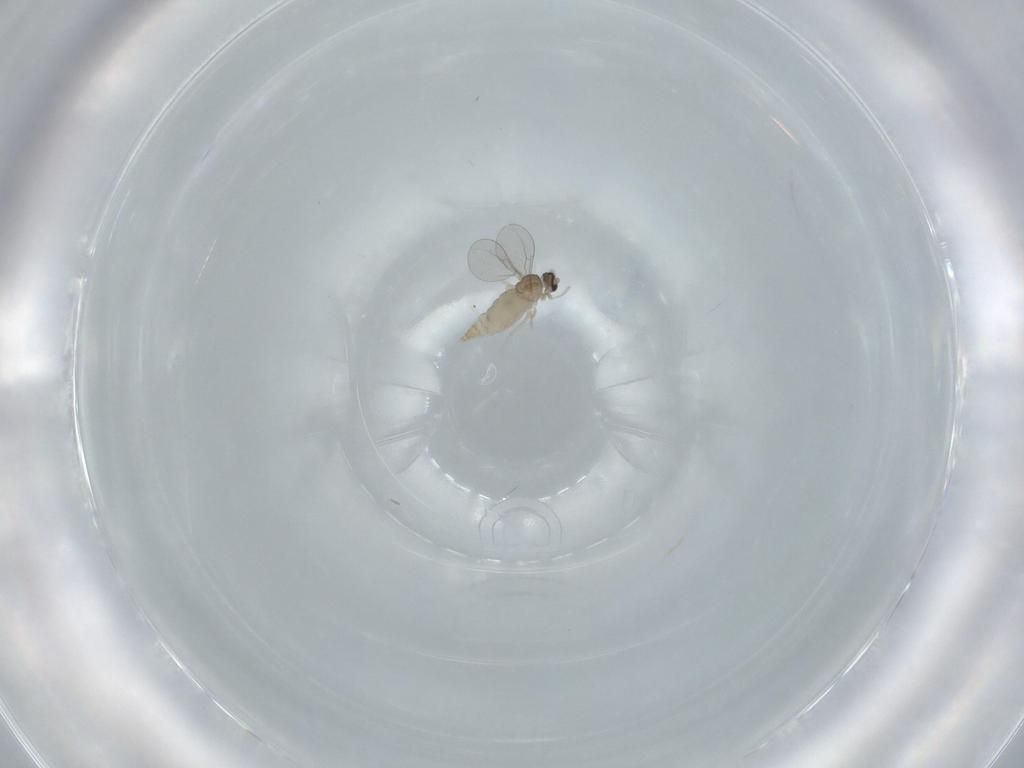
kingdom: Animalia
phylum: Arthropoda
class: Insecta
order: Diptera
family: Cecidomyiidae
